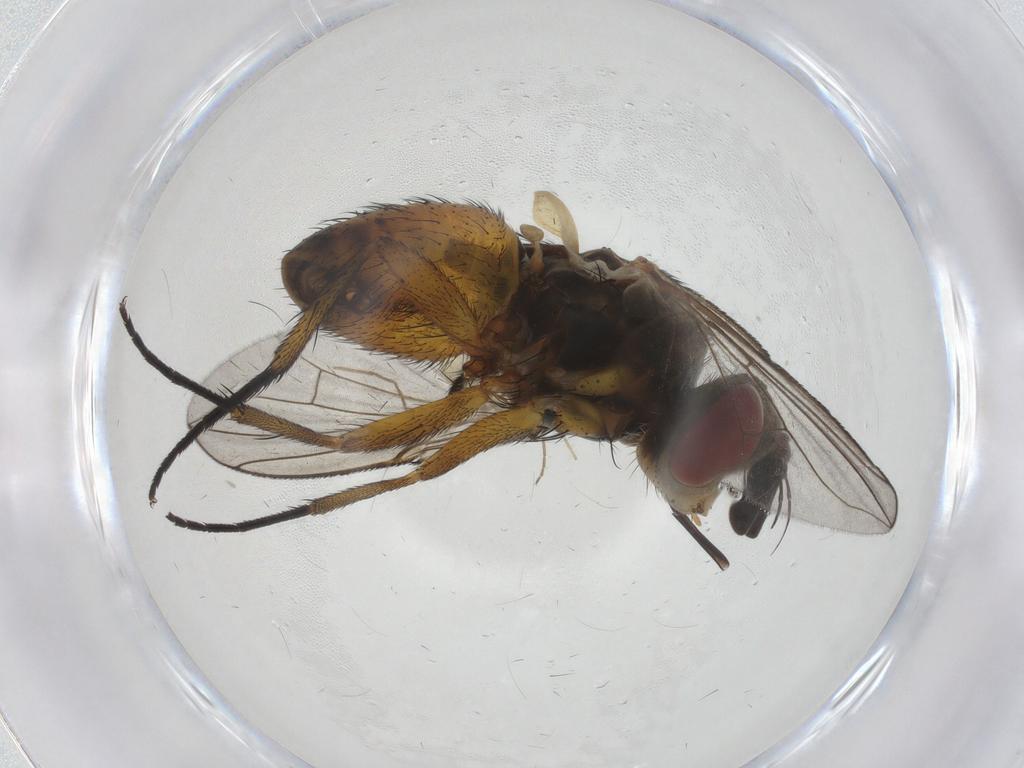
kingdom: Animalia
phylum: Arthropoda
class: Insecta
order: Diptera
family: Tachinidae
